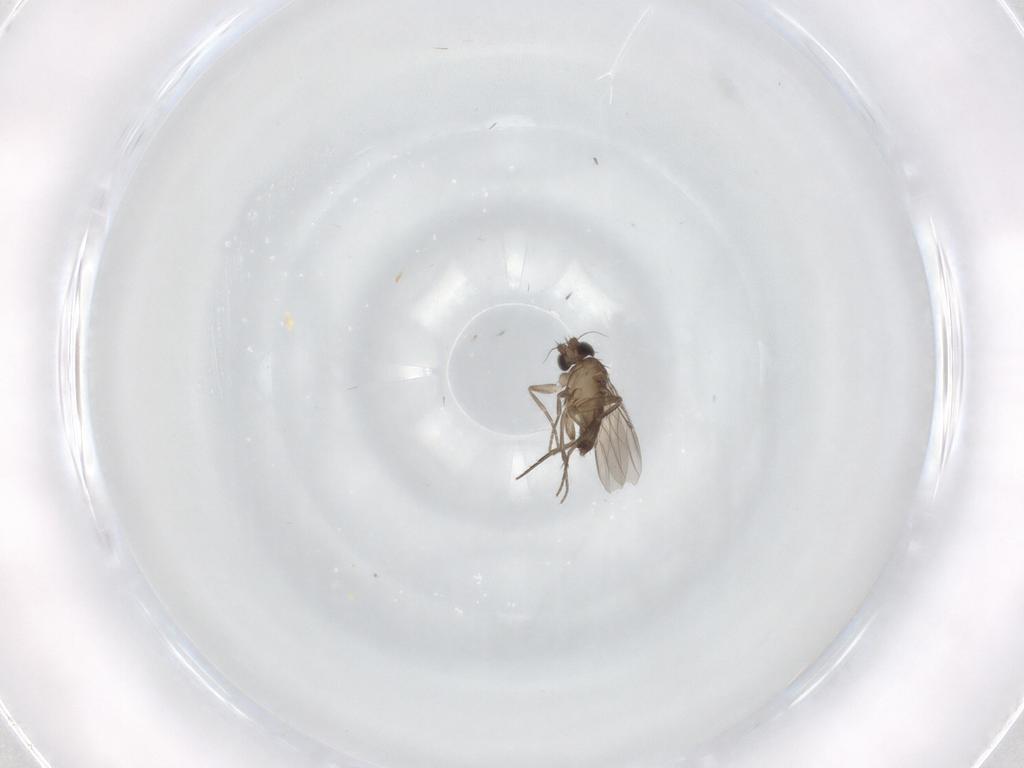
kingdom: Animalia
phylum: Arthropoda
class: Insecta
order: Diptera
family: Phoridae
